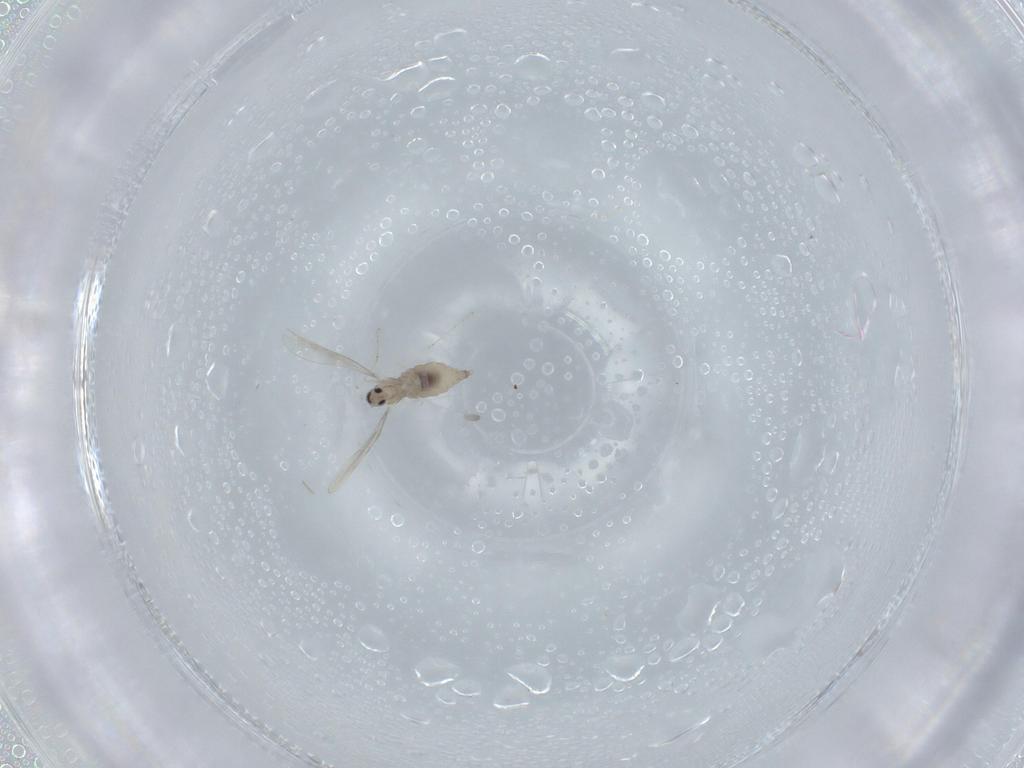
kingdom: Animalia
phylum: Arthropoda
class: Insecta
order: Diptera
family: Cecidomyiidae
